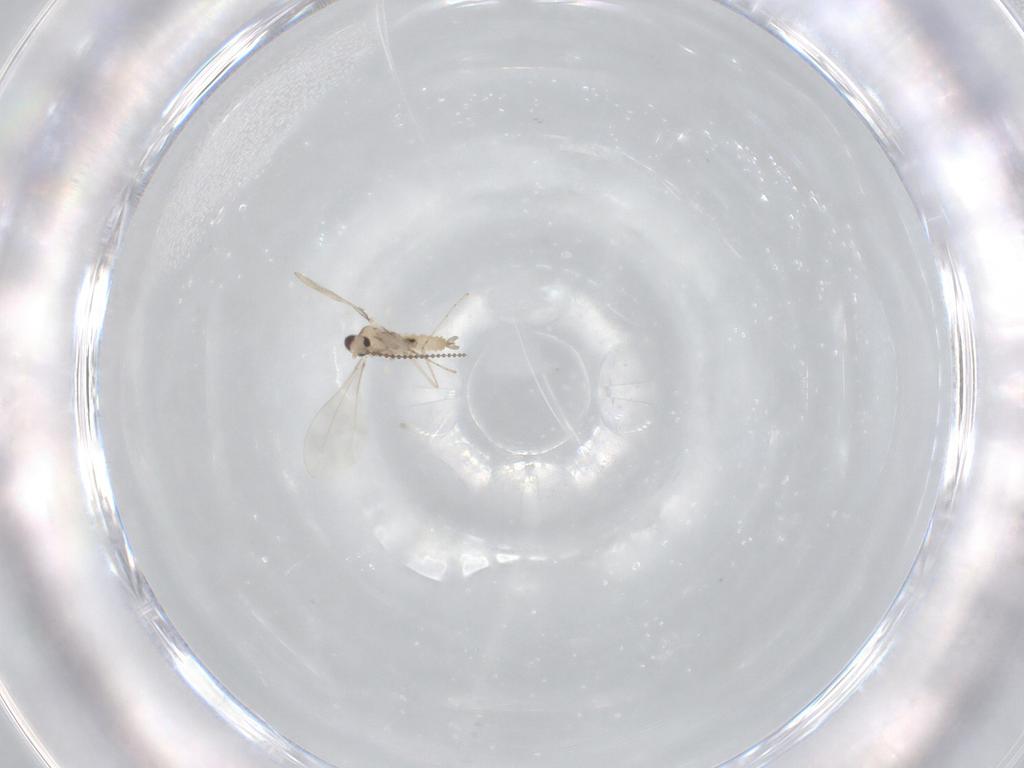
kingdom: Animalia
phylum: Arthropoda
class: Insecta
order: Diptera
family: Cecidomyiidae
